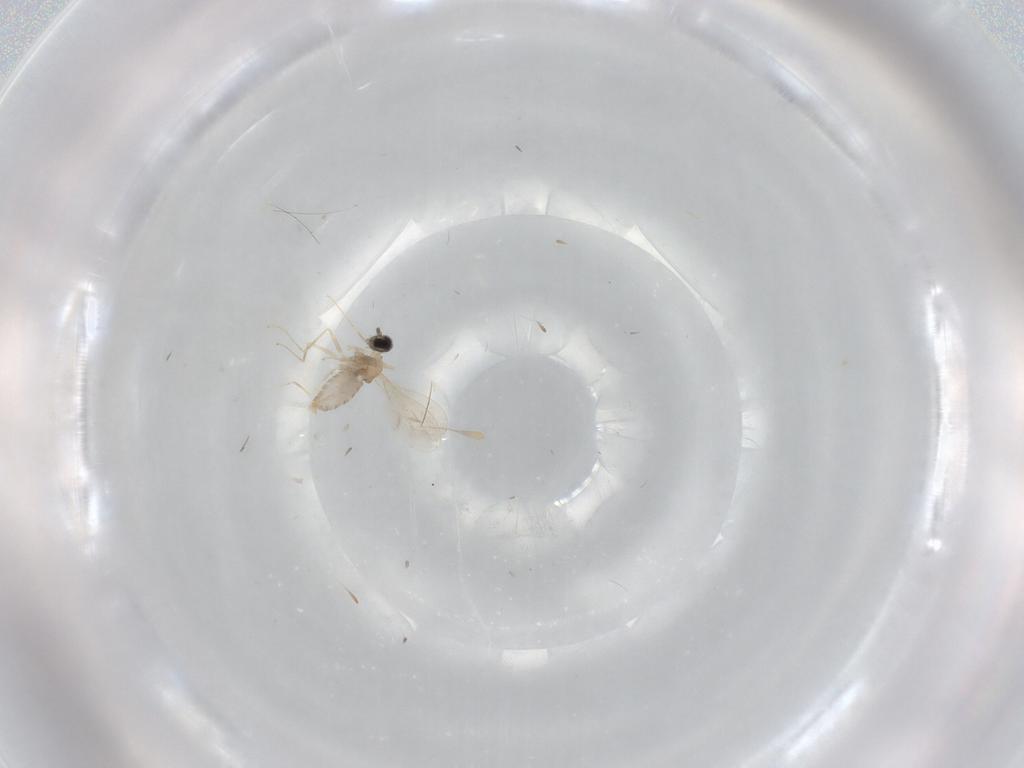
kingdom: Animalia
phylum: Arthropoda
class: Insecta
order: Diptera
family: Cecidomyiidae
